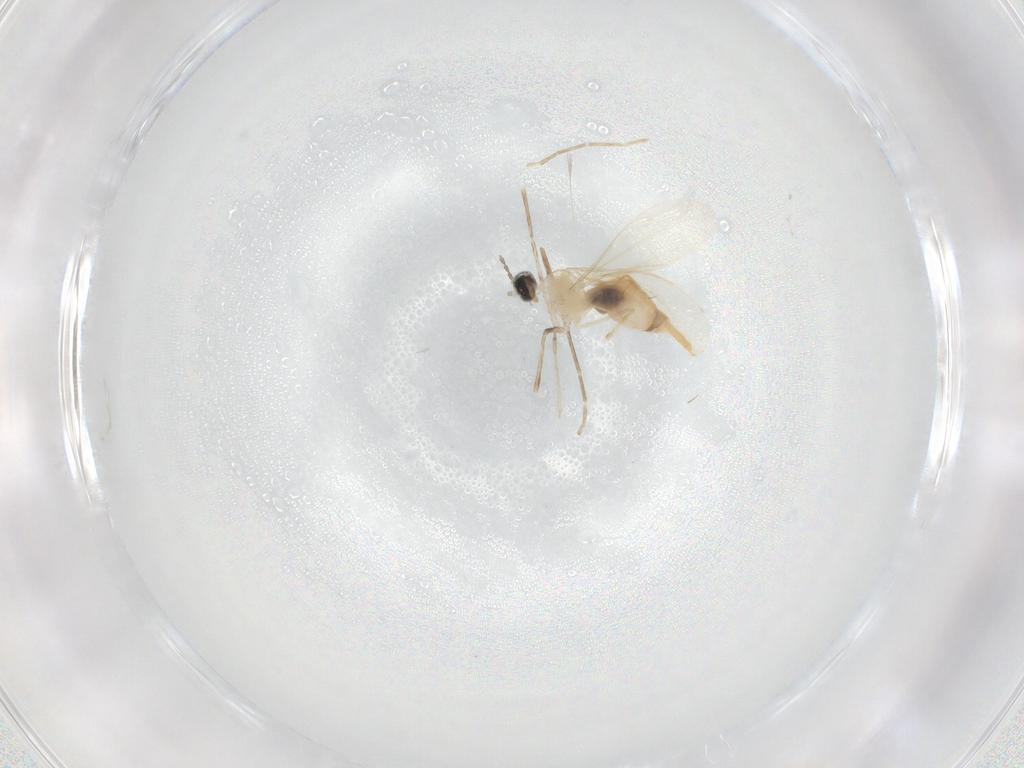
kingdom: Animalia
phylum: Arthropoda
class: Insecta
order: Diptera
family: Cecidomyiidae
